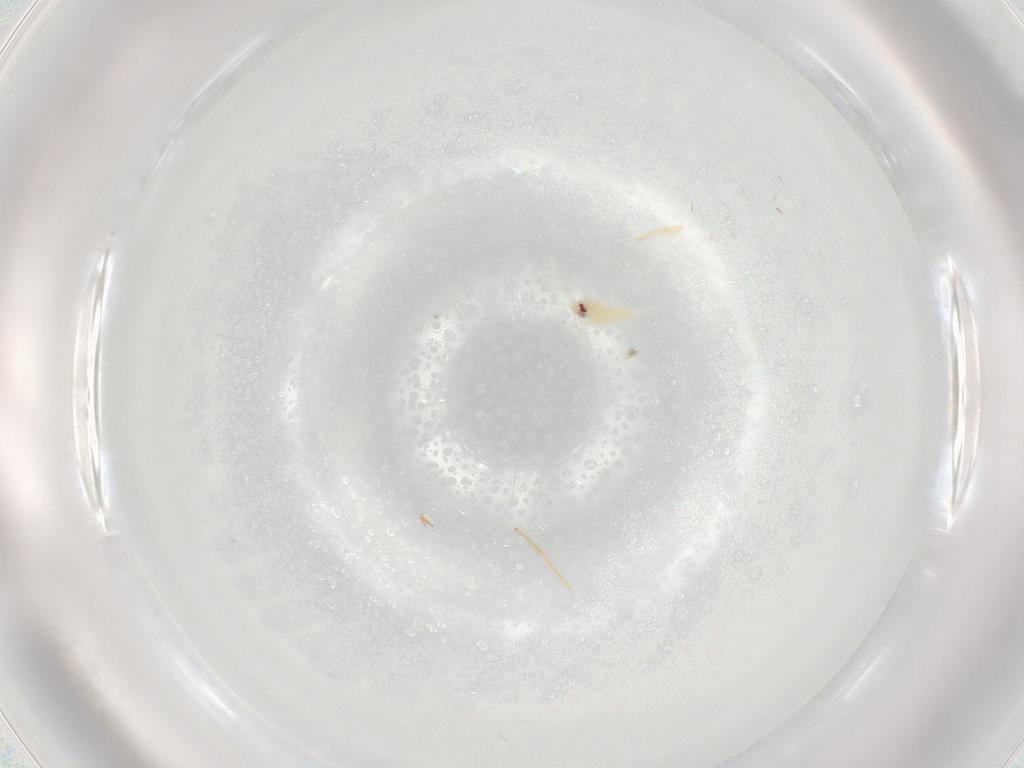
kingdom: Animalia
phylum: Arthropoda
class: Insecta
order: Hemiptera
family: Aleyrodidae
